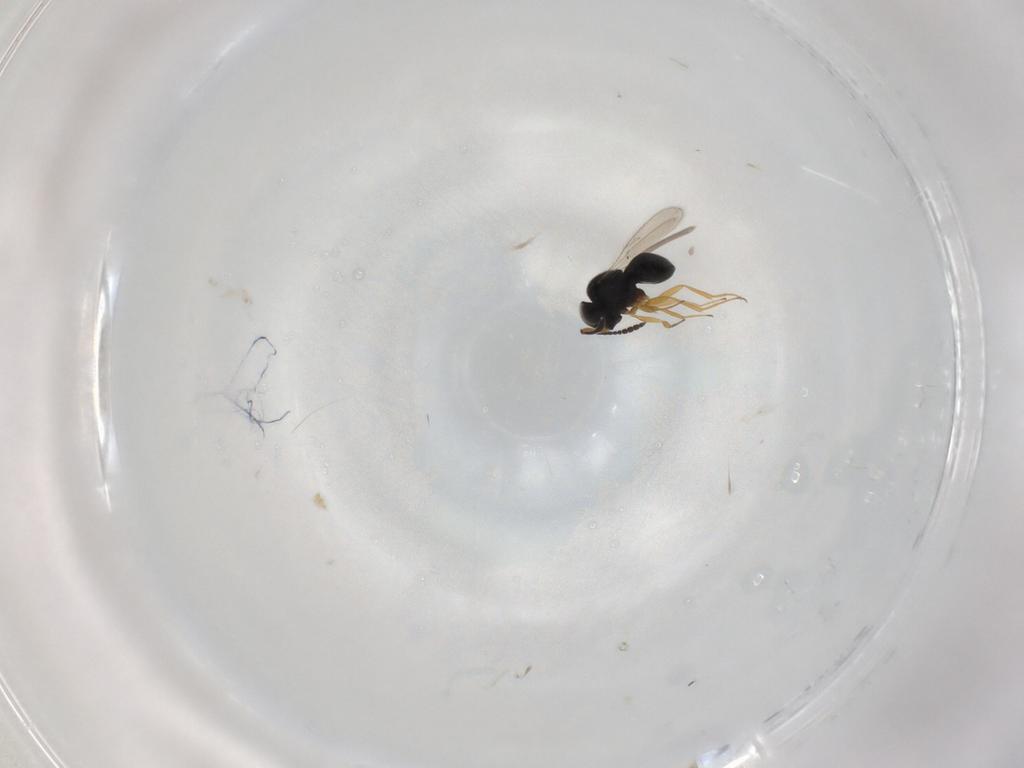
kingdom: Animalia
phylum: Arthropoda
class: Insecta
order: Hymenoptera
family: Scelionidae
